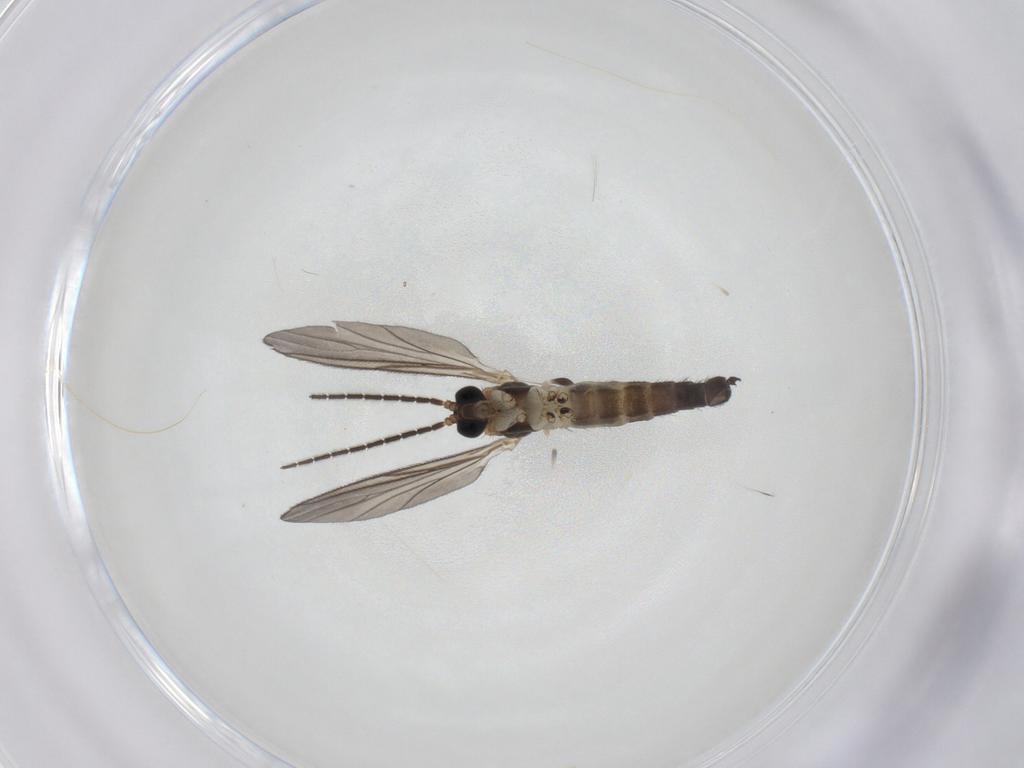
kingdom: Animalia
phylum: Arthropoda
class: Insecta
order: Diptera
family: Sciaridae
